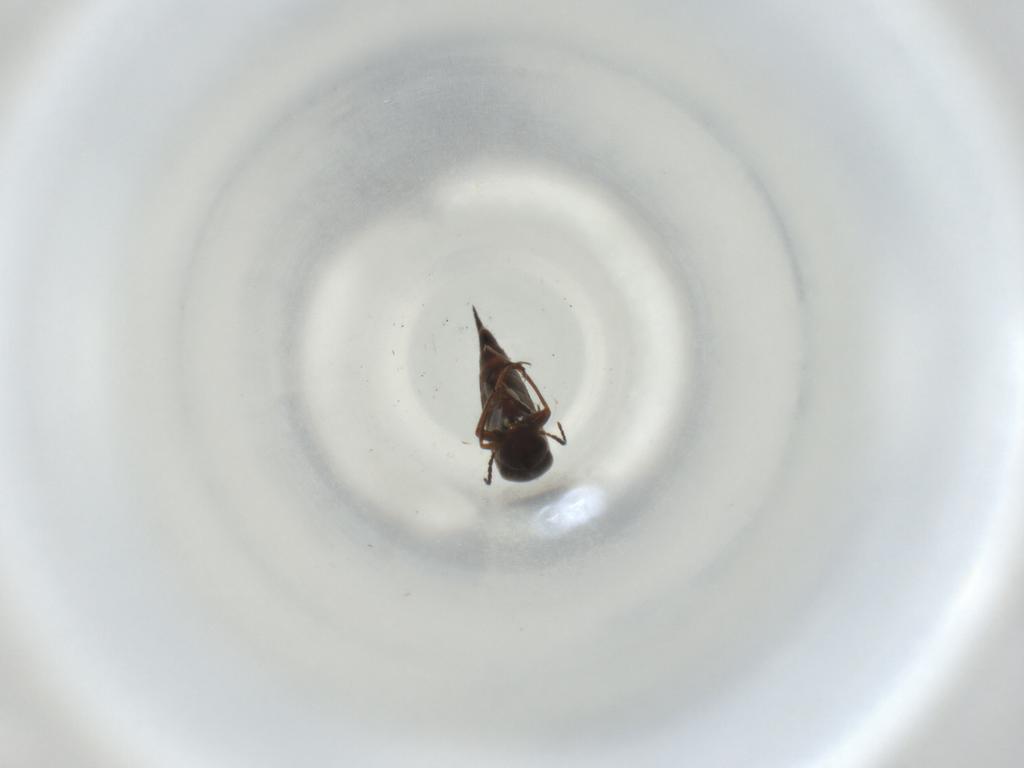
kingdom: Animalia
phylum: Arthropoda
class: Insecta
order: Coleoptera
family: Mordellidae
